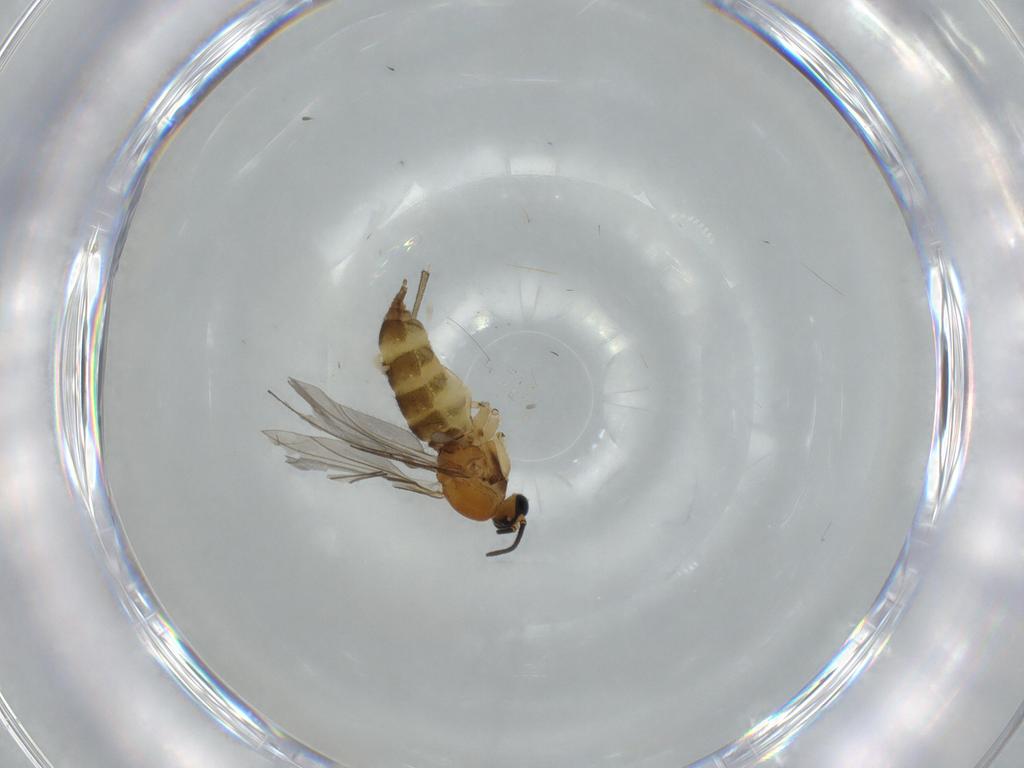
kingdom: Animalia
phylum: Arthropoda
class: Insecta
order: Diptera
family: Sciaridae
